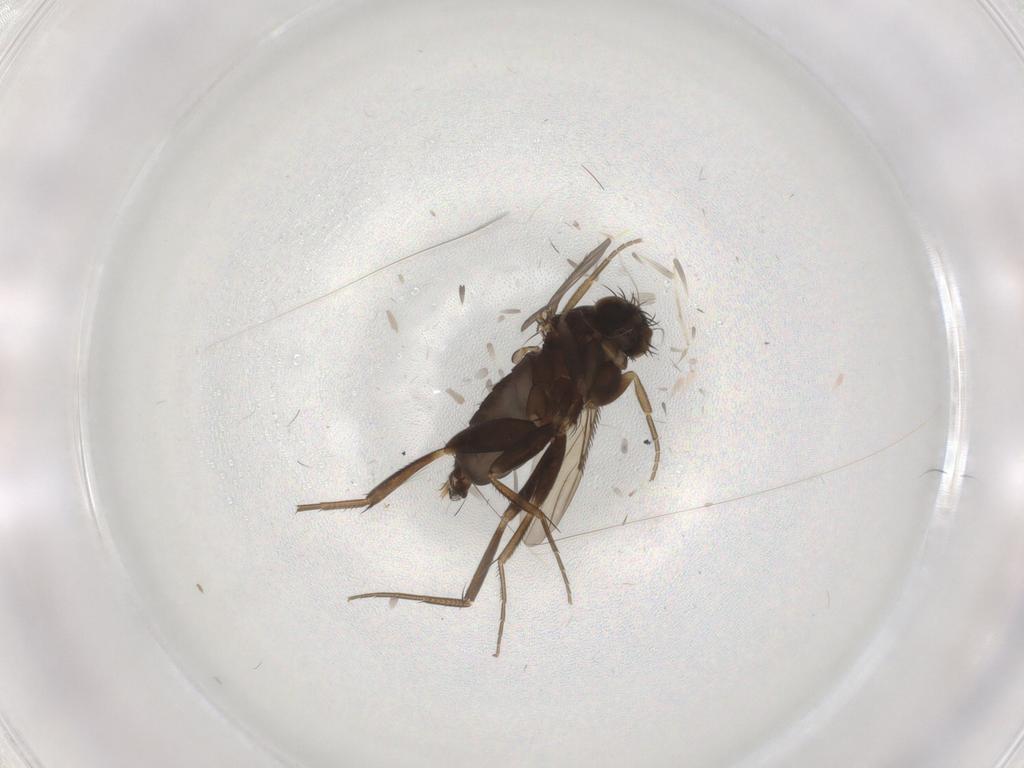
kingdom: Animalia
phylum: Arthropoda
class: Insecta
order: Diptera
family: Phoridae
